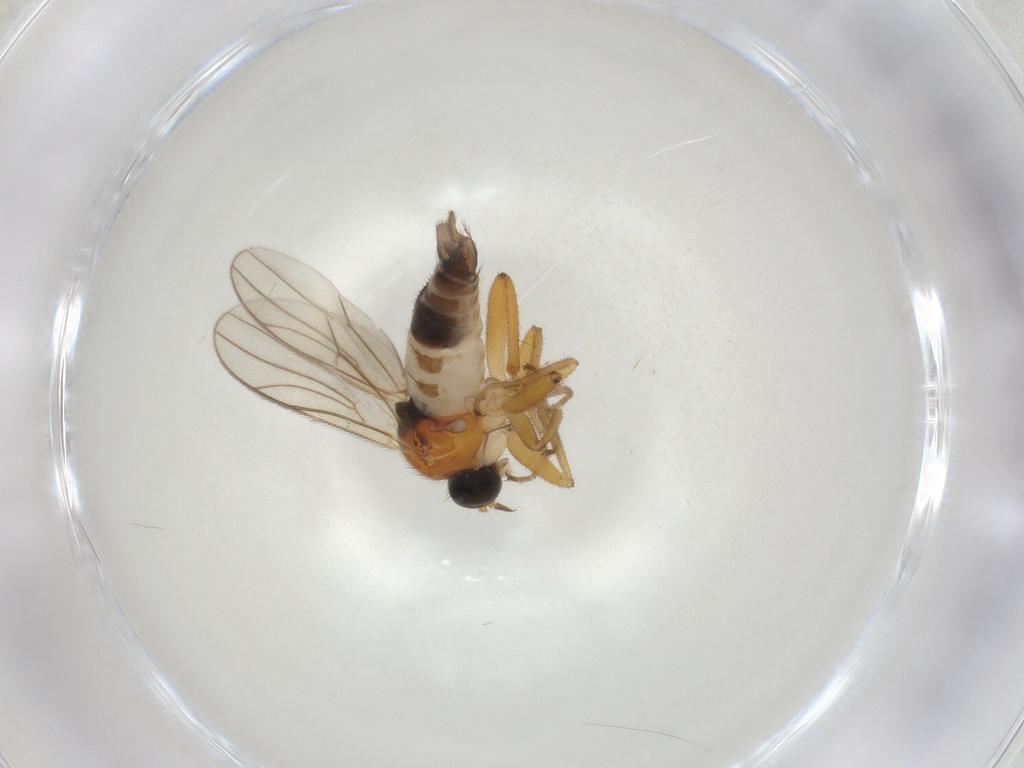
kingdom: Animalia
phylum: Arthropoda
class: Insecta
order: Diptera
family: Hybotidae
